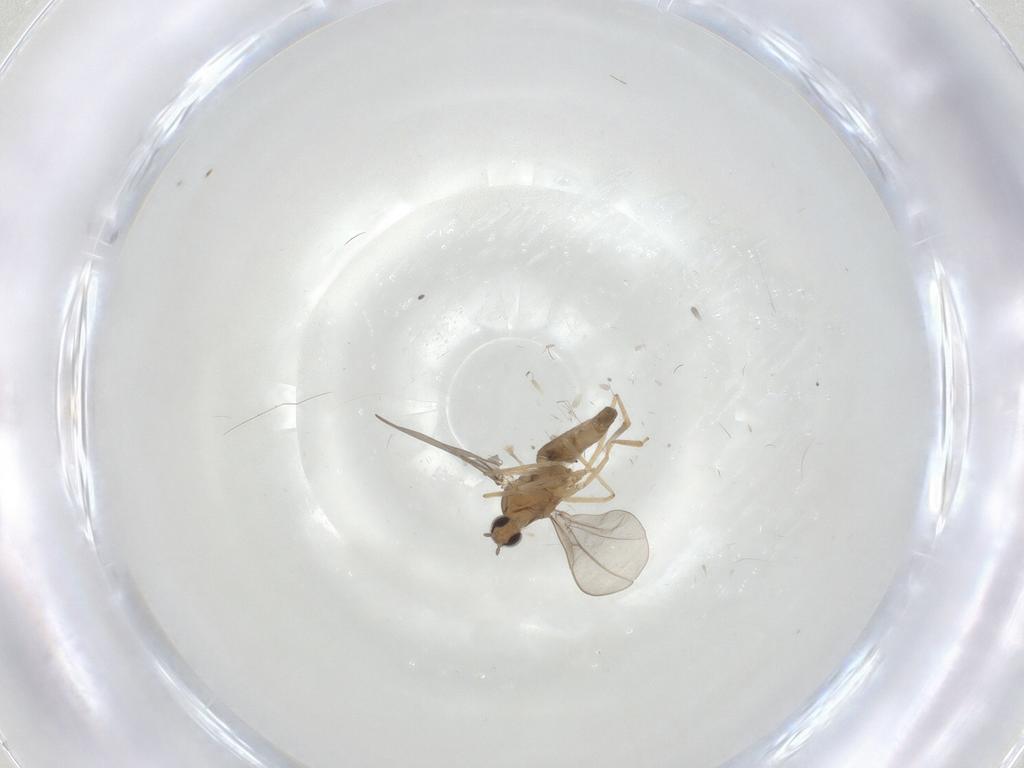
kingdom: Animalia
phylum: Arthropoda
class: Insecta
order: Diptera
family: Cecidomyiidae
